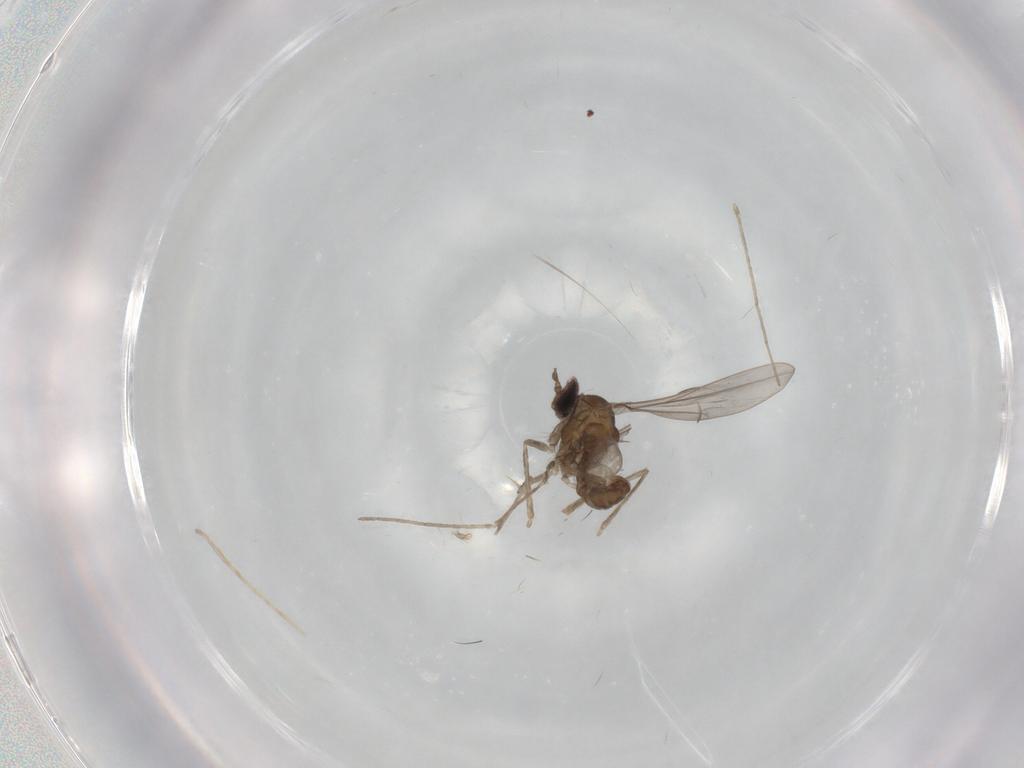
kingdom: Animalia
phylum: Arthropoda
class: Insecta
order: Diptera
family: Cecidomyiidae
